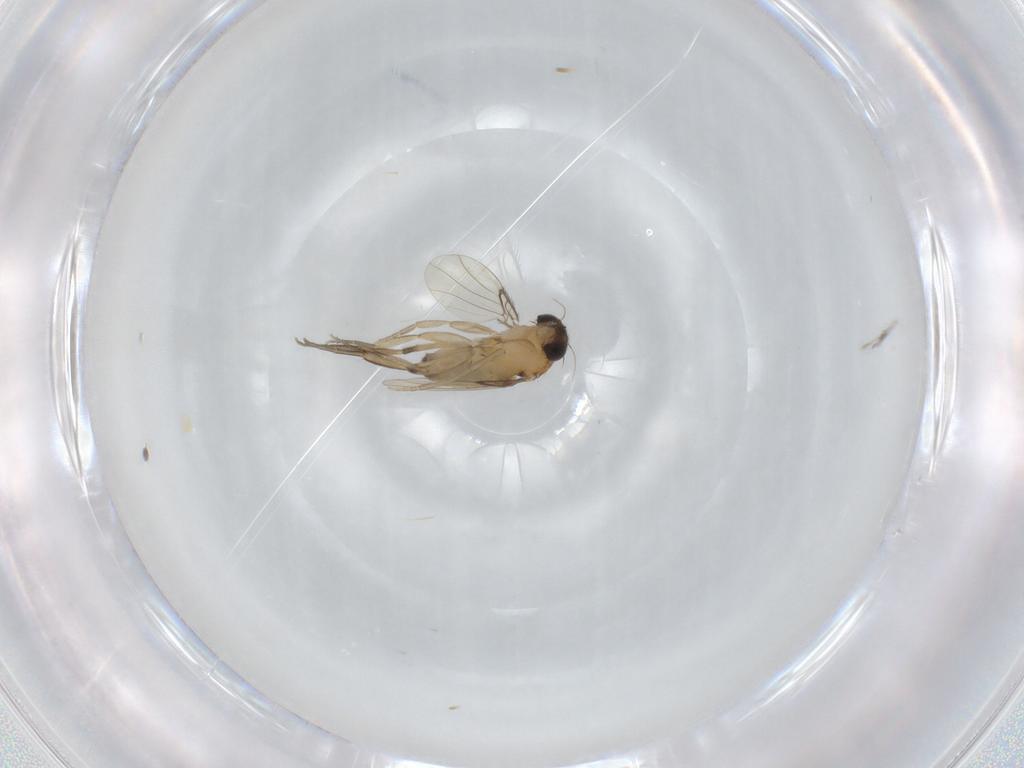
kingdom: Animalia
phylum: Arthropoda
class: Insecta
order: Diptera
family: Phoridae
